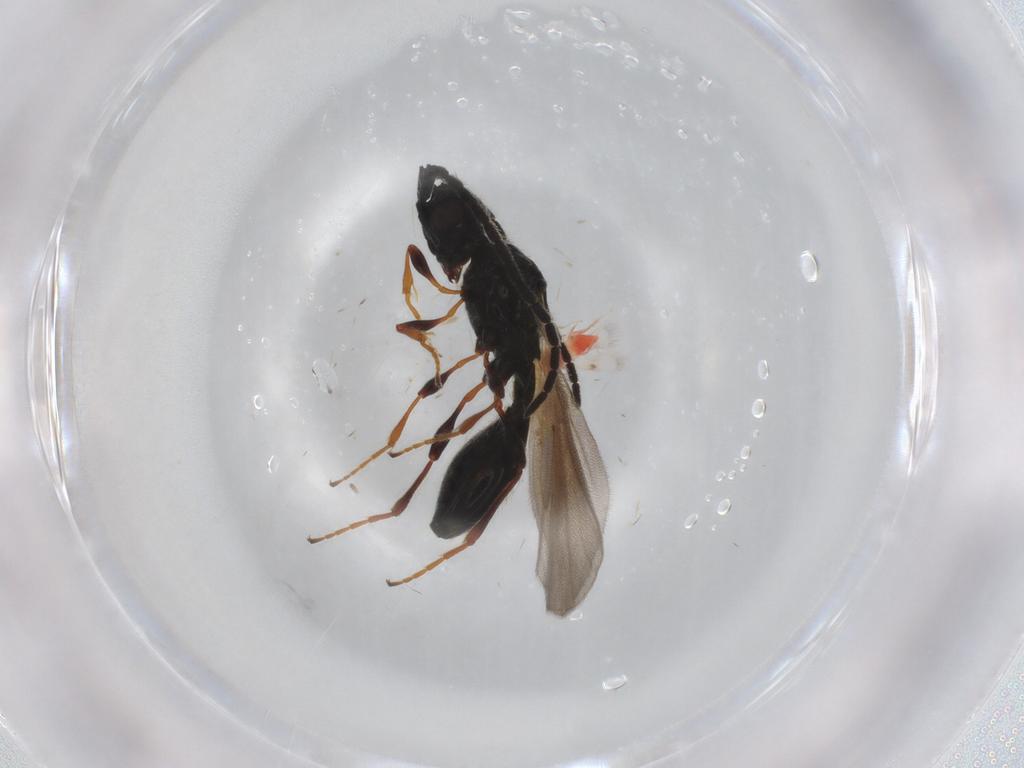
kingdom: Animalia
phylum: Arthropoda
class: Insecta
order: Hymenoptera
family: Diapriidae
